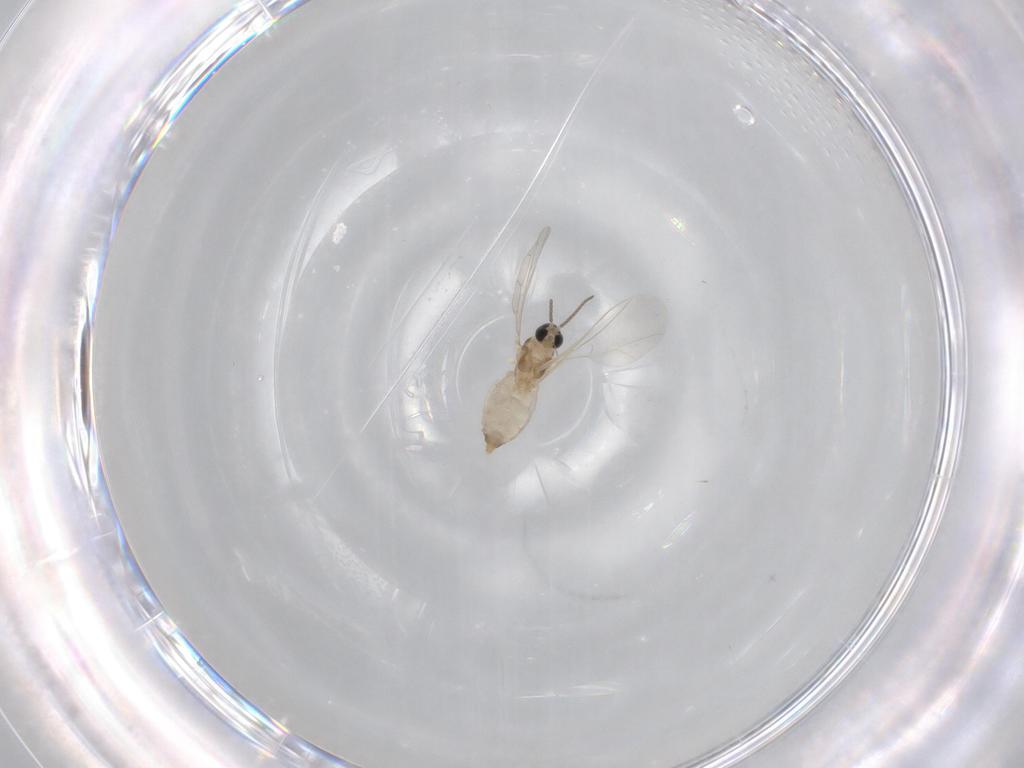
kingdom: Animalia
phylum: Arthropoda
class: Insecta
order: Diptera
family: Cecidomyiidae
